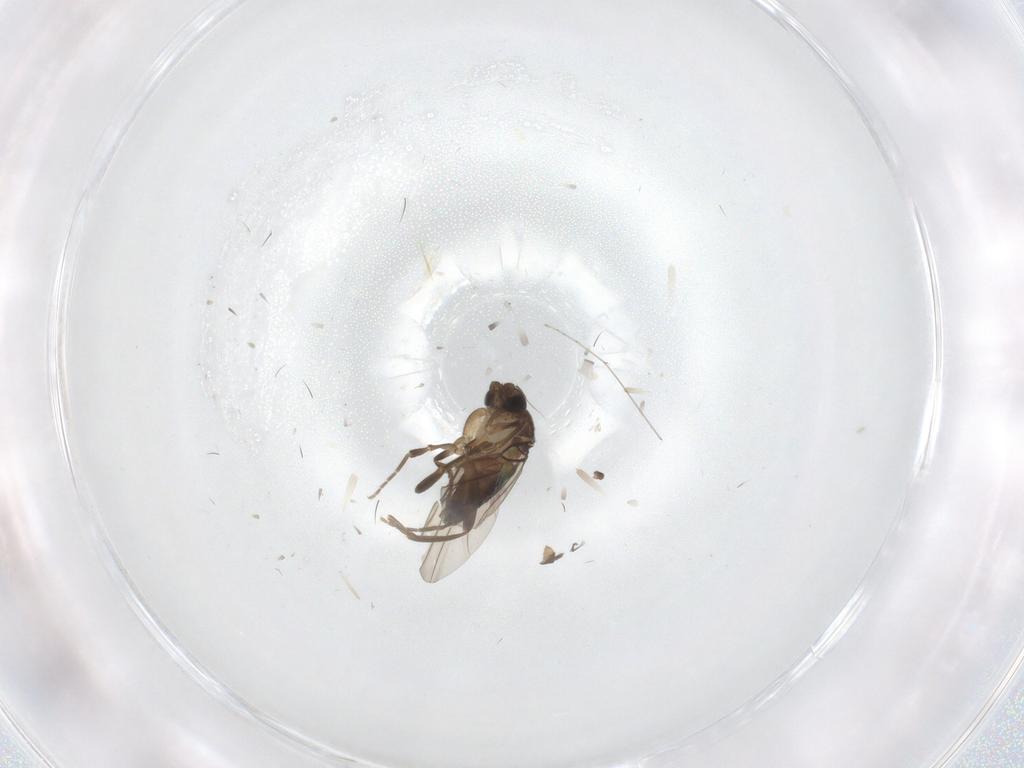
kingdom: Animalia
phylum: Arthropoda
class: Insecta
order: Diptera
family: Cecidomyiidae
